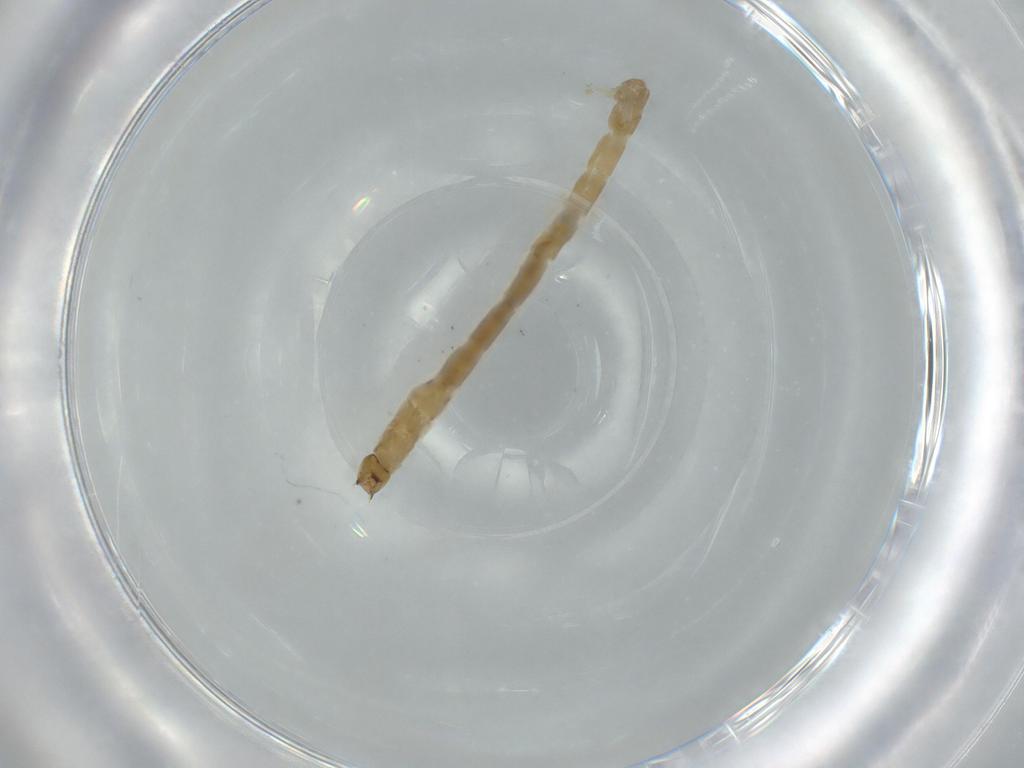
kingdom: Animalia
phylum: Arthropoda
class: Insecta
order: Diptera
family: Chironomidae
